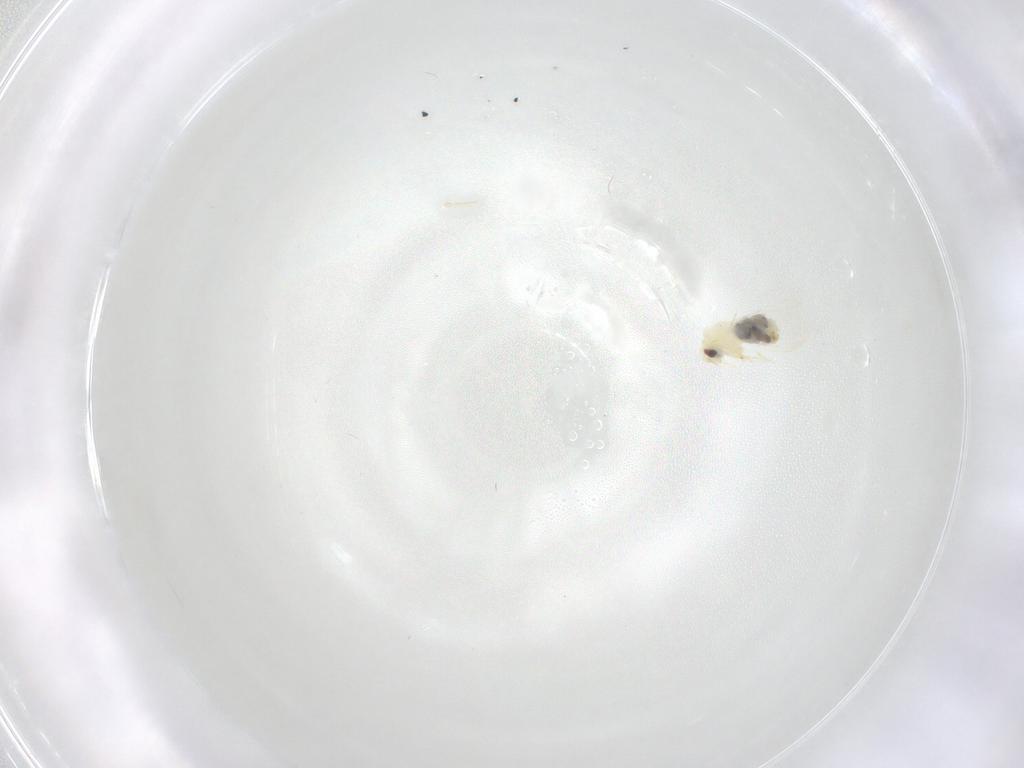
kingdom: Animalia
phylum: Arthropoda
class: Insecta
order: Hemiptera
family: Aleyrodidae
